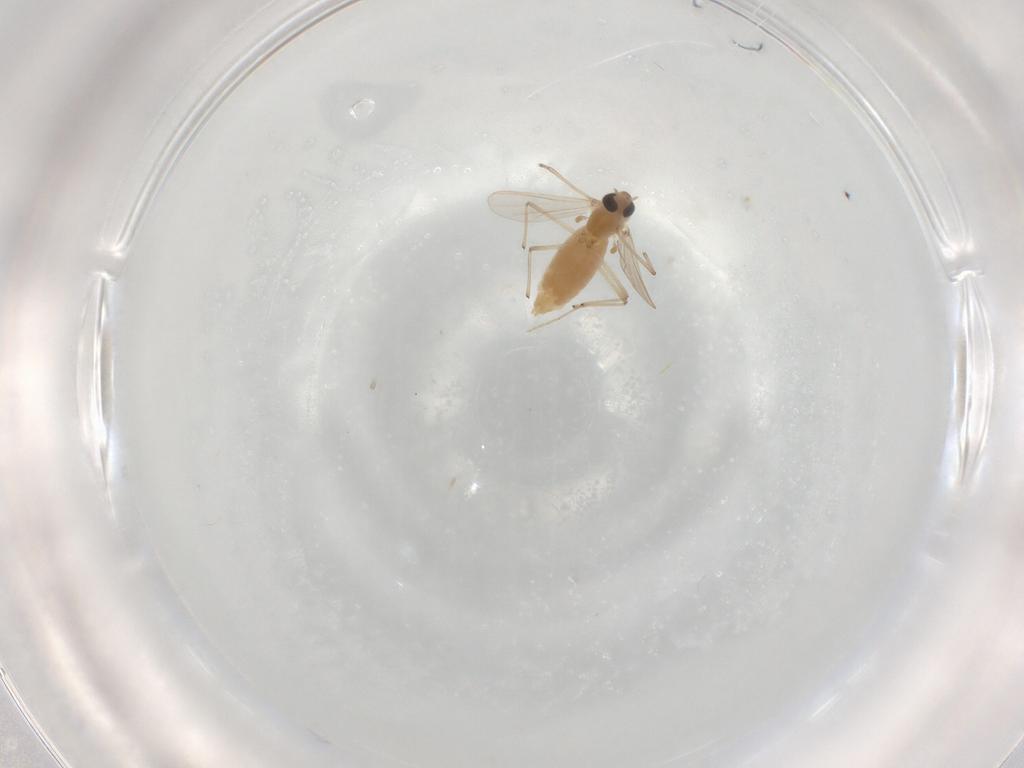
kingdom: Animalia
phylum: Arthropoda
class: Insecta
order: Diptera
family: Chironomidae
